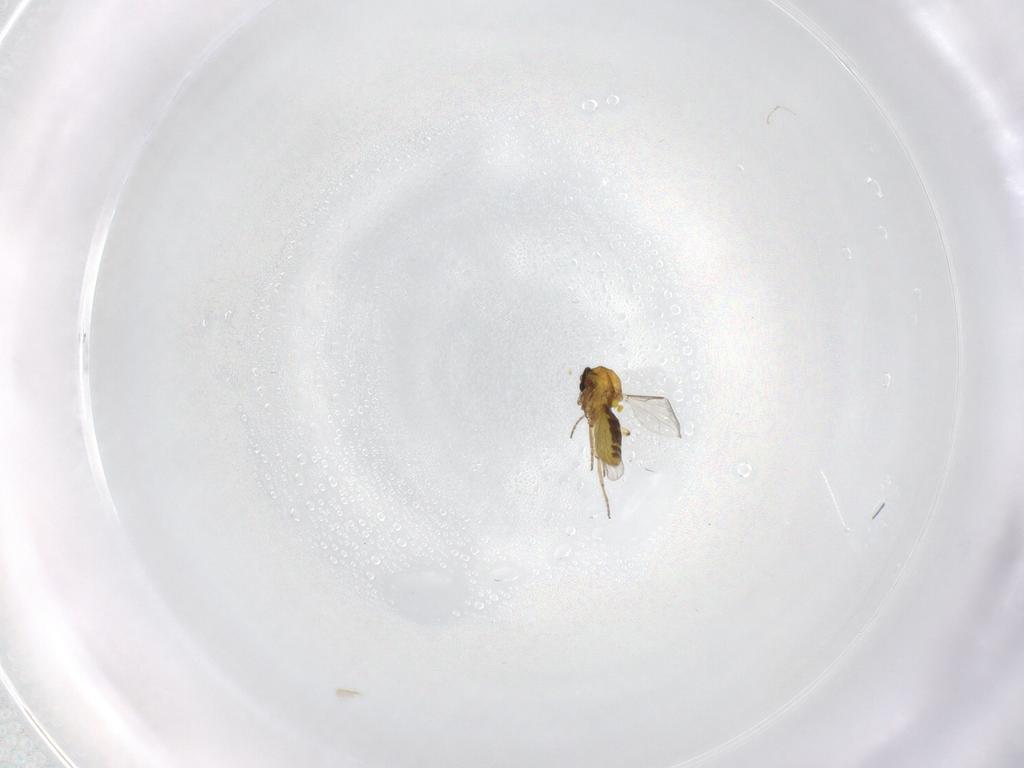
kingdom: Animalia
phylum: Arthropoda
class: Insecta
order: Diptera
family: Ceratopogonidae
